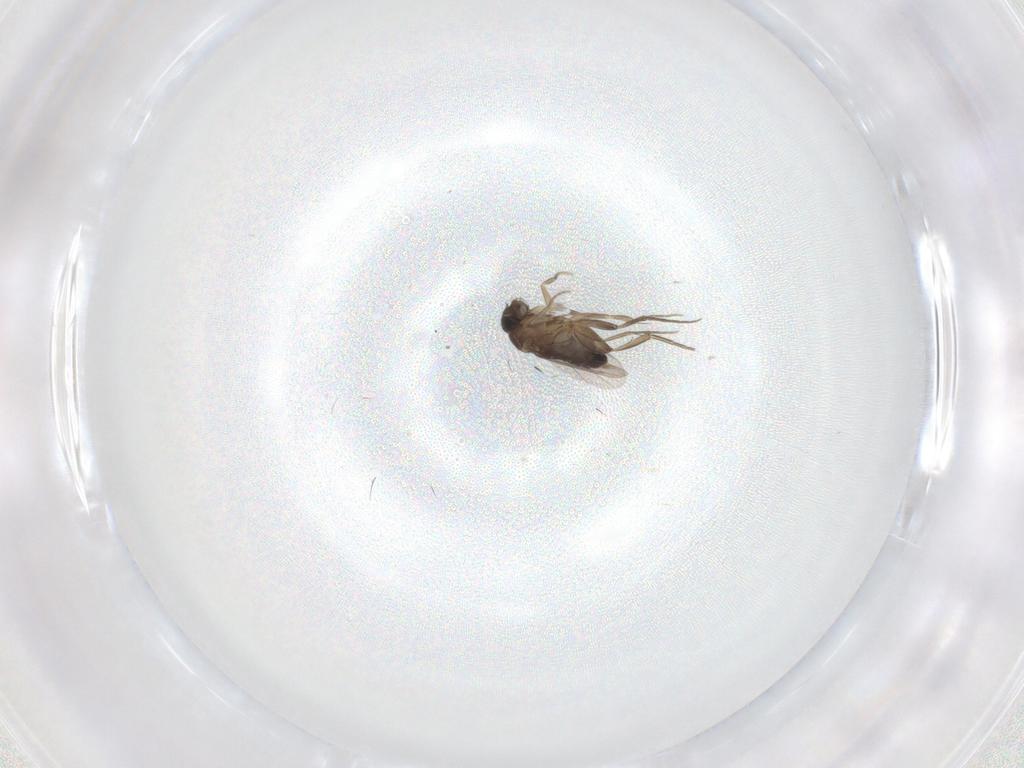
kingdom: Animalia
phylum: Arthropoda
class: Insecta
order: Diptera
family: Phoridae
